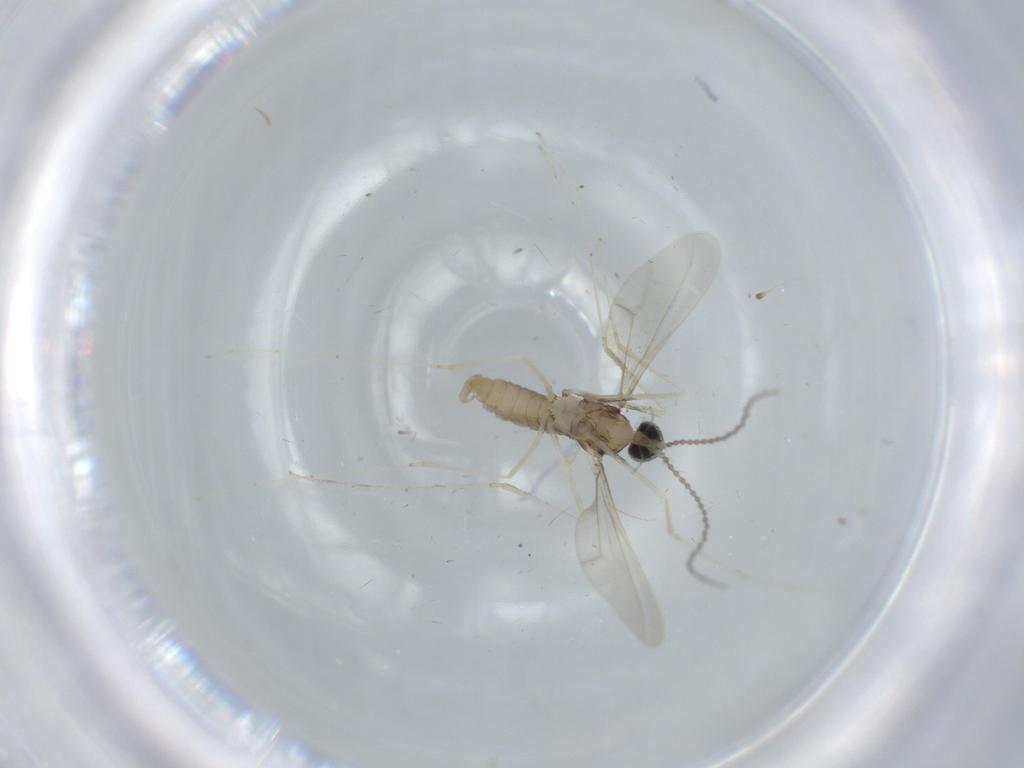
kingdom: Animalia
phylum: Arthropoda
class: Insecta
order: Diptera
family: Cecidomyiidae
